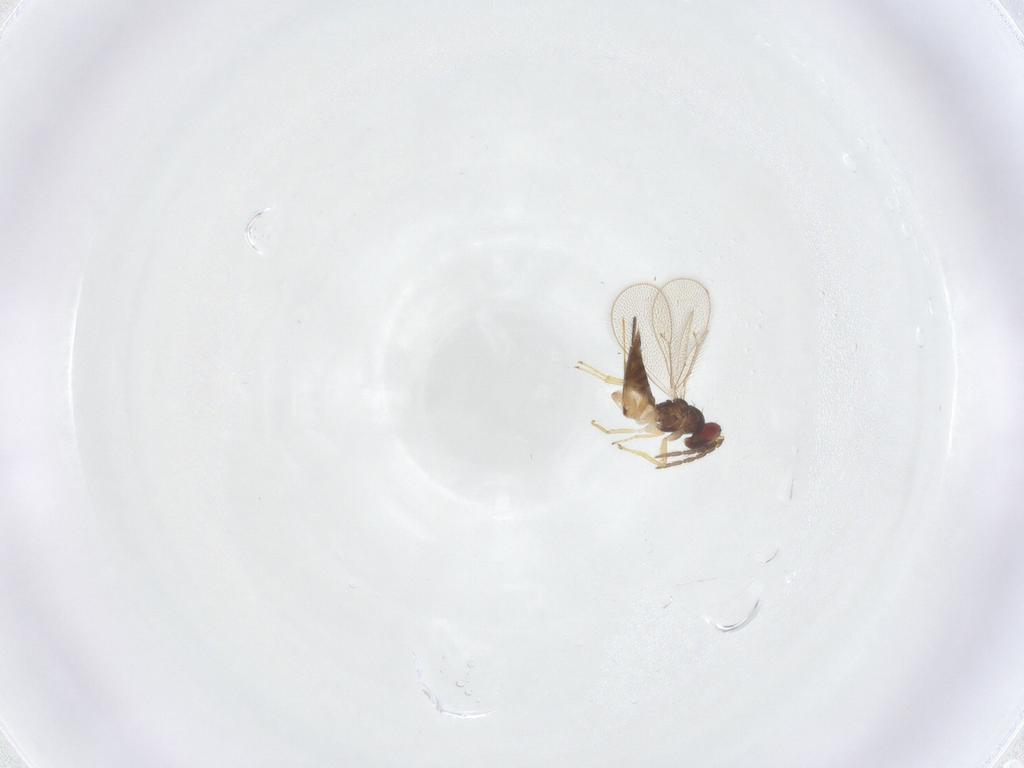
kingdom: Animalia
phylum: Arthropoda
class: Insecta
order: Hymenoptera
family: Eulophidae
